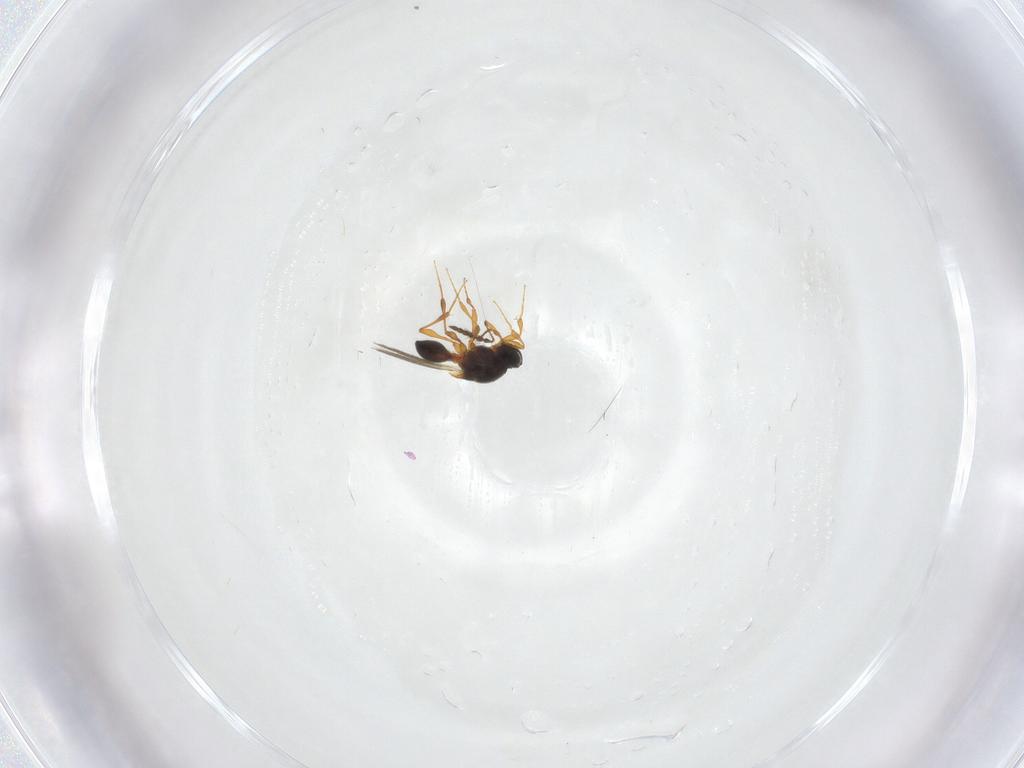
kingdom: Animalia
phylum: Arthropoda
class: Insecta
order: Hymenoptera
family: Platygastridae
